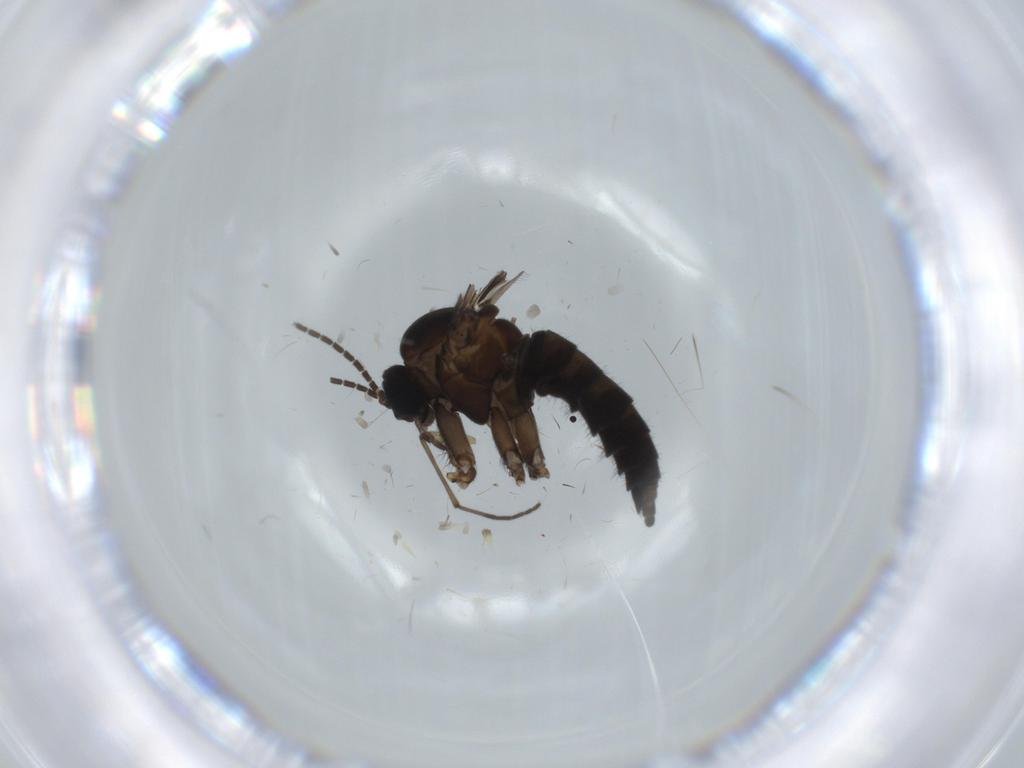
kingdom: Animalia
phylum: Arthropoda
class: Insecta
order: Diptera
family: Sciaridae
